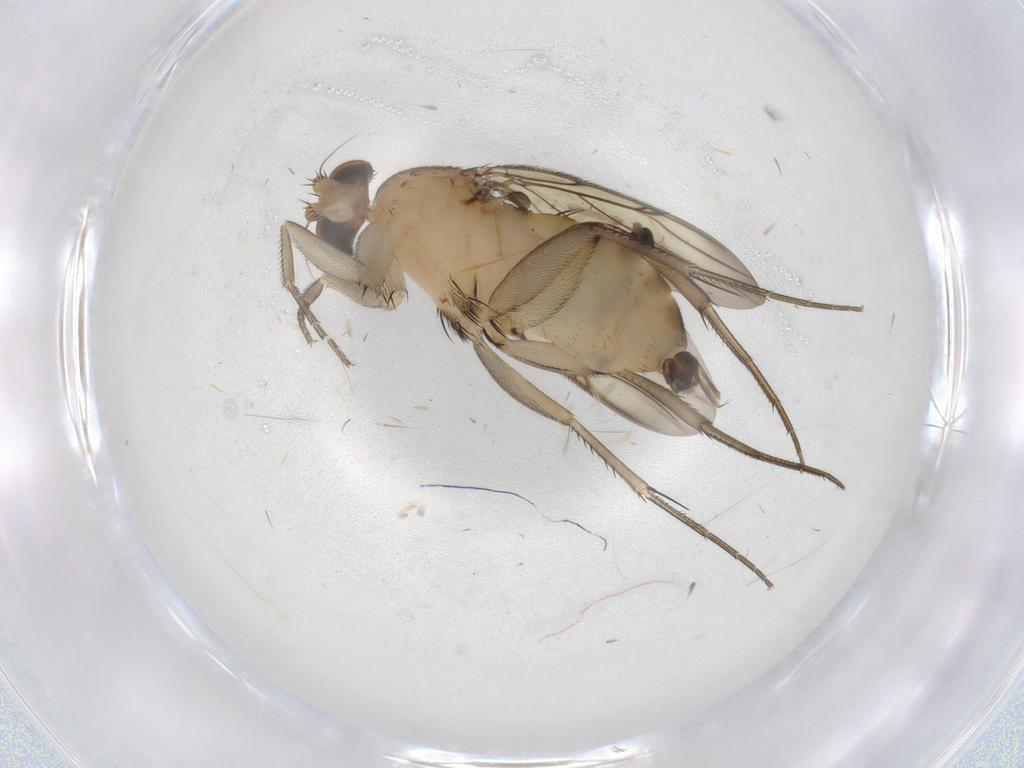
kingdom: Animalia
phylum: Arthropoda
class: Insecta
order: Diptera
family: Phoridae
